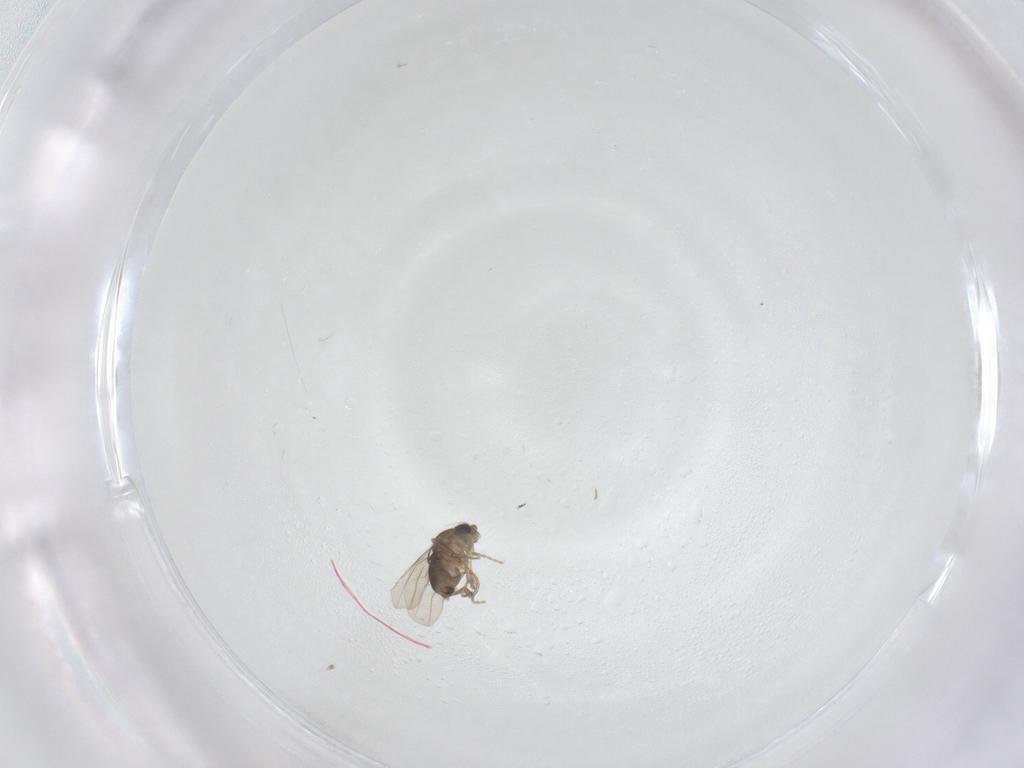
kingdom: Animalia
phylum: Arthropoda
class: Insecta
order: Diptera
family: Phoridae
